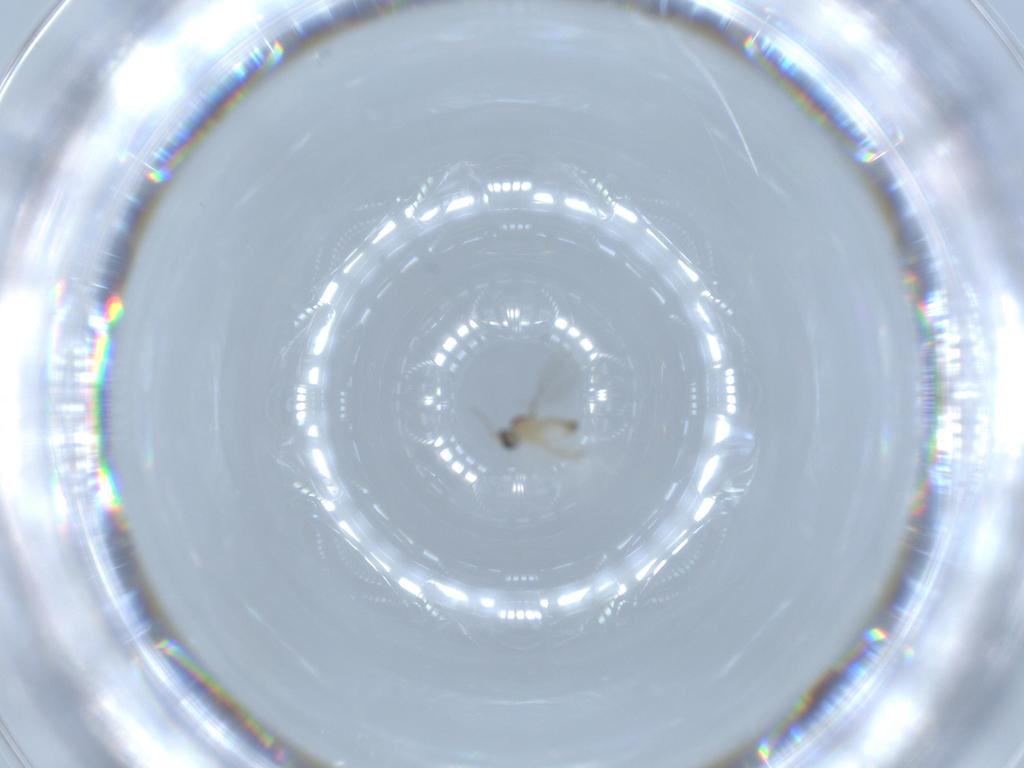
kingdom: Animalia
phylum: Arthropoda
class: Insecta
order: Diptera
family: Cecidomyiidae
